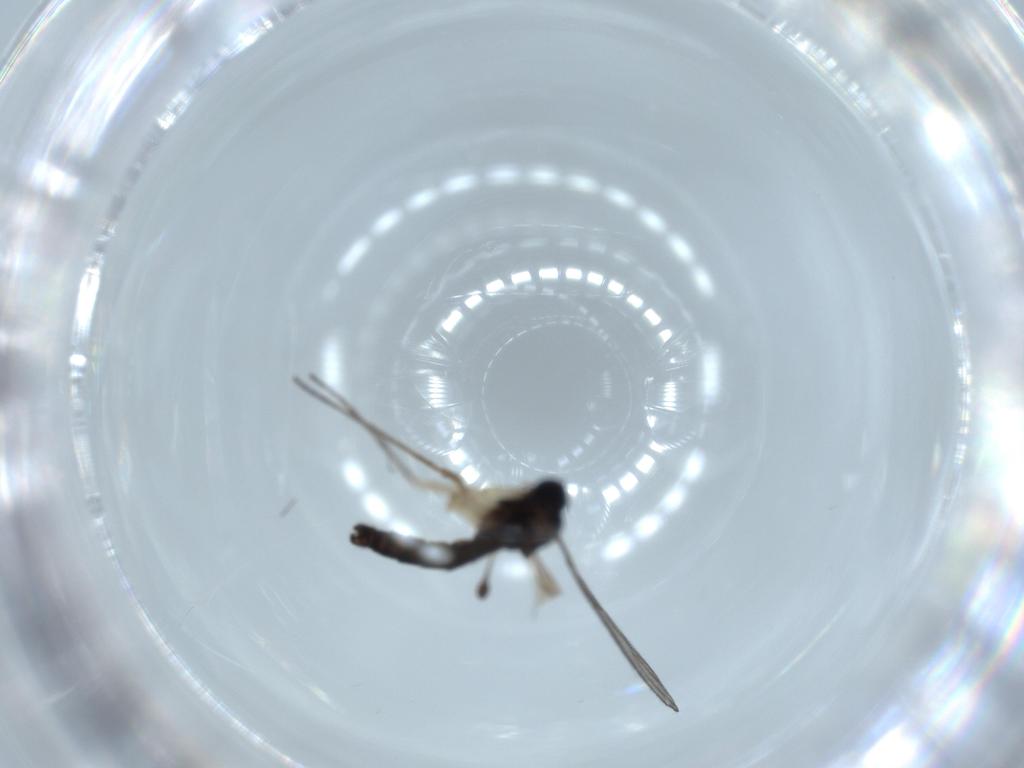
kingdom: Animalia
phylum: Arthropoda
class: Insecta
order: Diptera
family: Sciaridae
